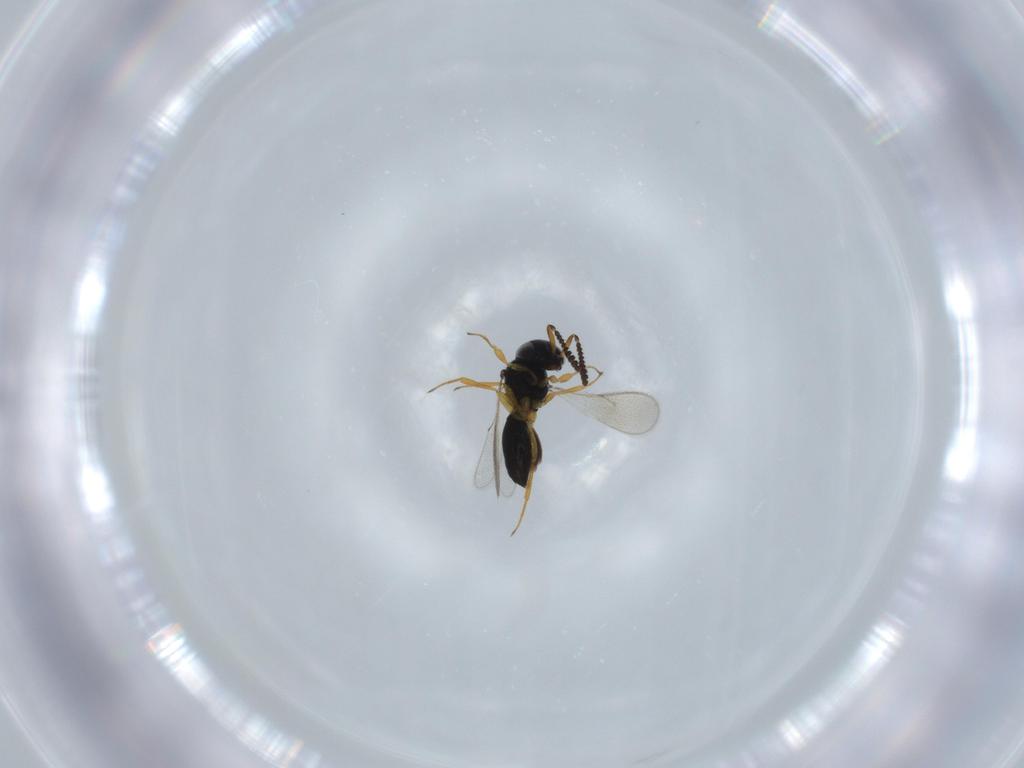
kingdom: Animalia
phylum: Arthropoda
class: Insecta
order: Hymenoptera
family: Scelionidae
